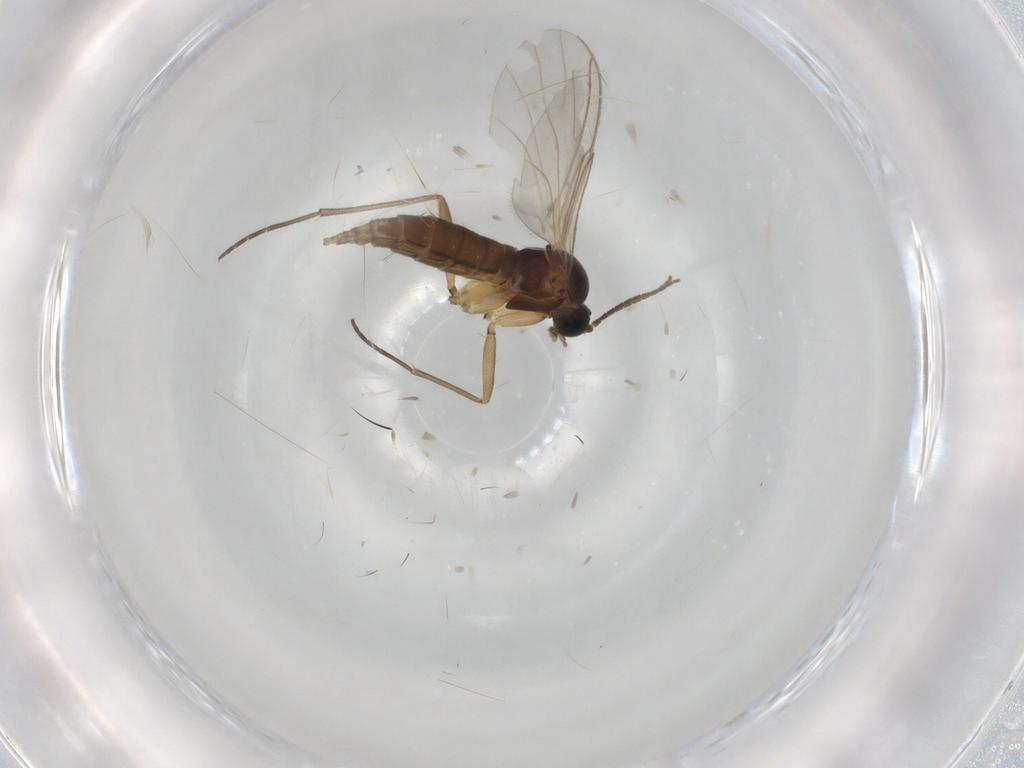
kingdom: Animalia
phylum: Arthropoda
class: Insecta
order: Diptera
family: Sciaridae
